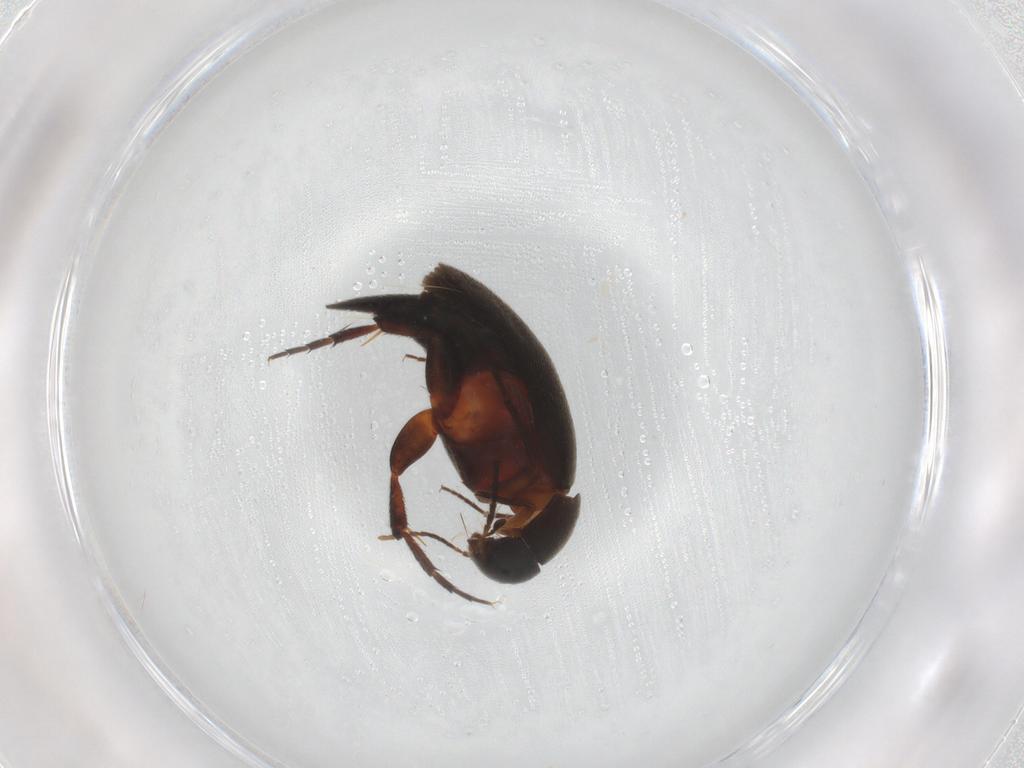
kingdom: Animalia
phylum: Arthropoda
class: Insecta
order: Coleoptera
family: Mordellidae
